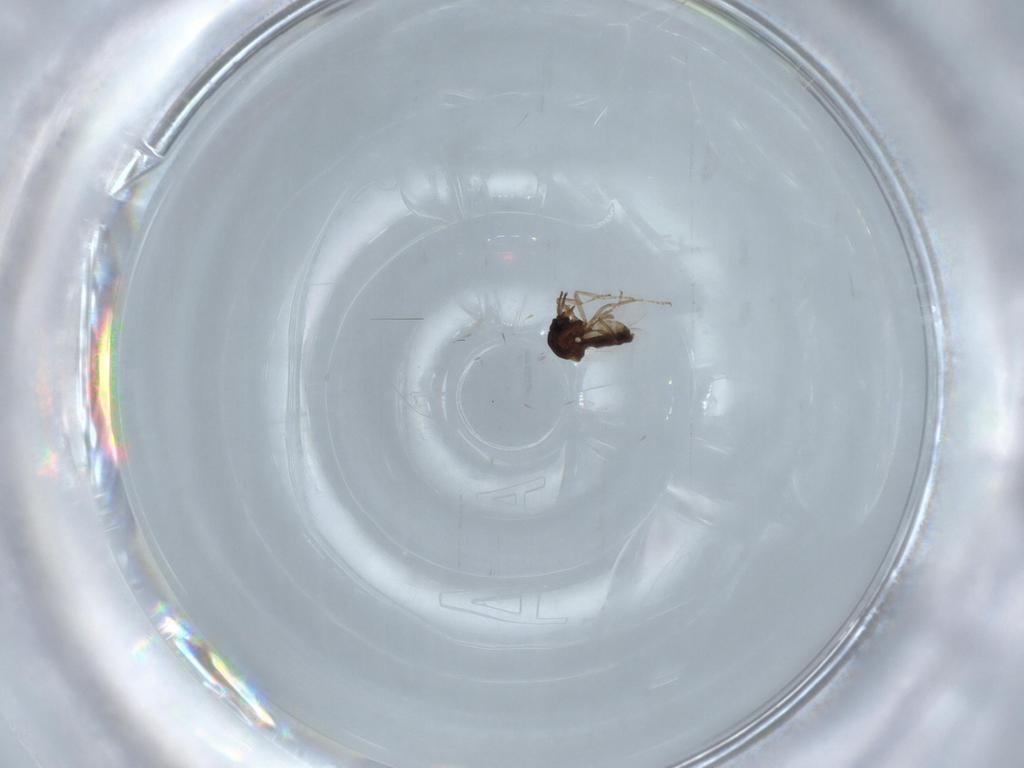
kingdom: Animalia
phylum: Arthropoda
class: Insecta
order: Diptera
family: Ceratopogonidae
